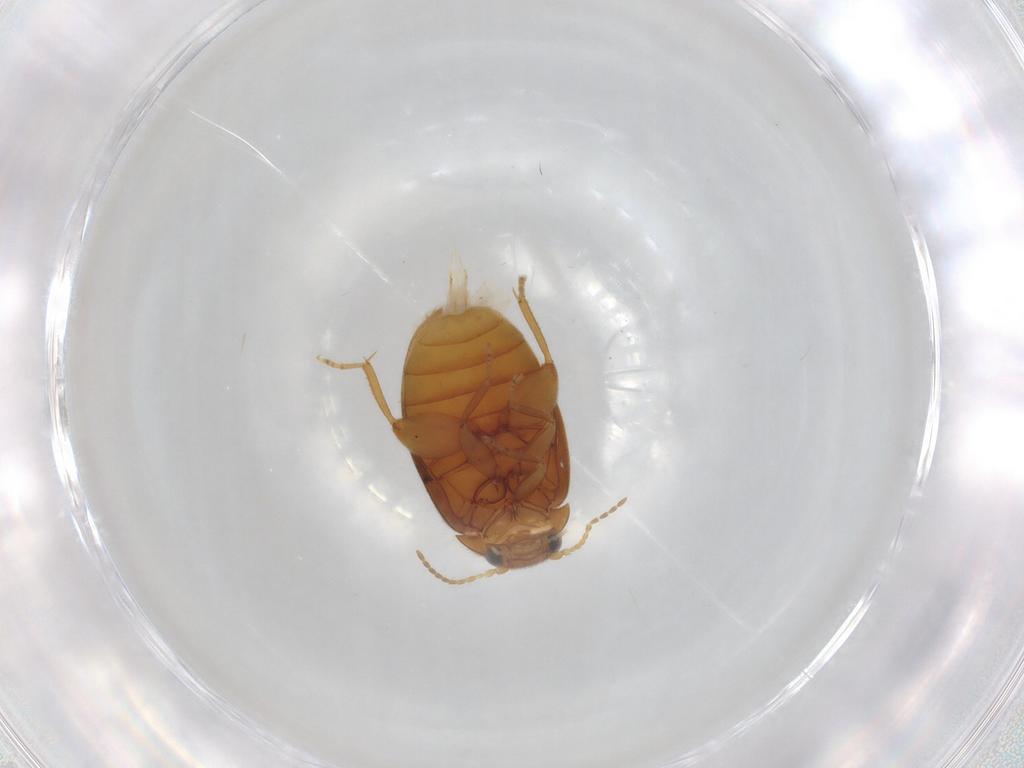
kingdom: Animalia
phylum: Arthropoda
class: Insecta
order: Coleoptera
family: Scirtidae
